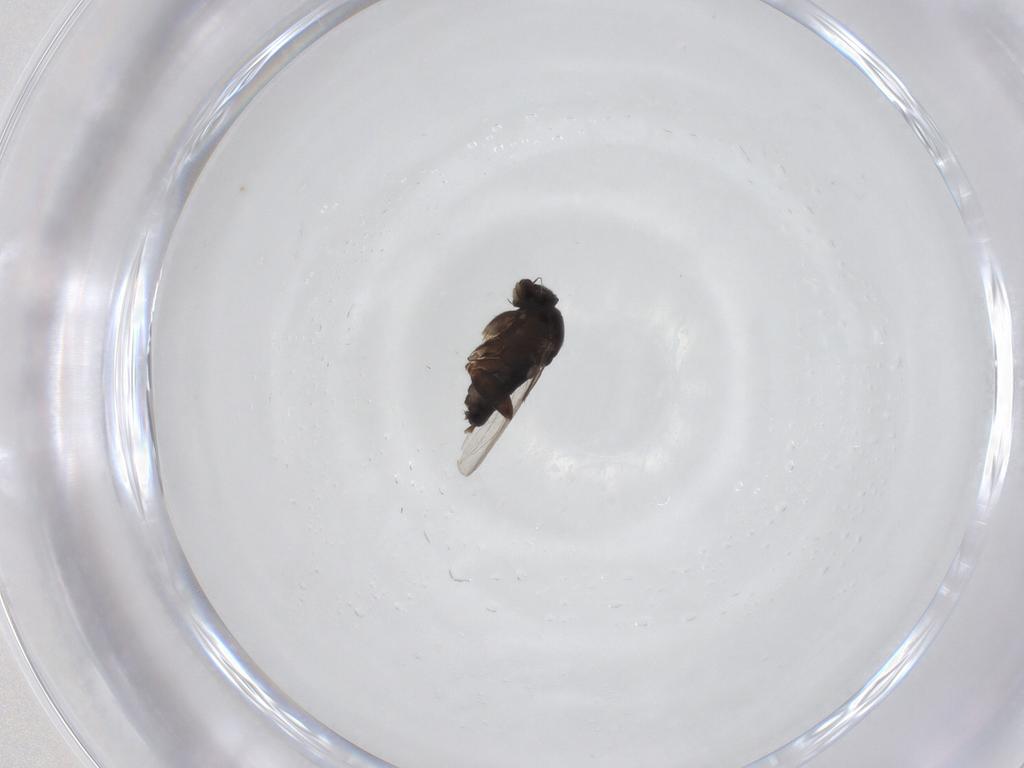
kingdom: Animalia
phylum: Arthropoda
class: Insecta
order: Diptera
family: Phoridae
